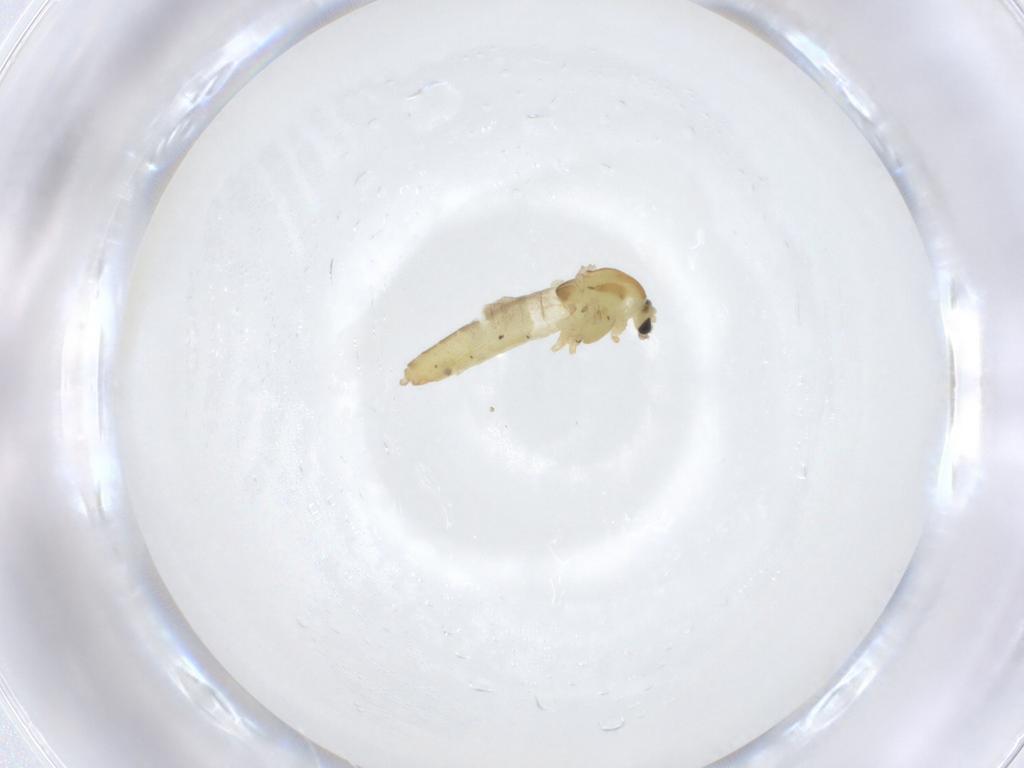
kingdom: Animalia
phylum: Arthropoda
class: Insecta
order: Diptera
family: Chironomidae
